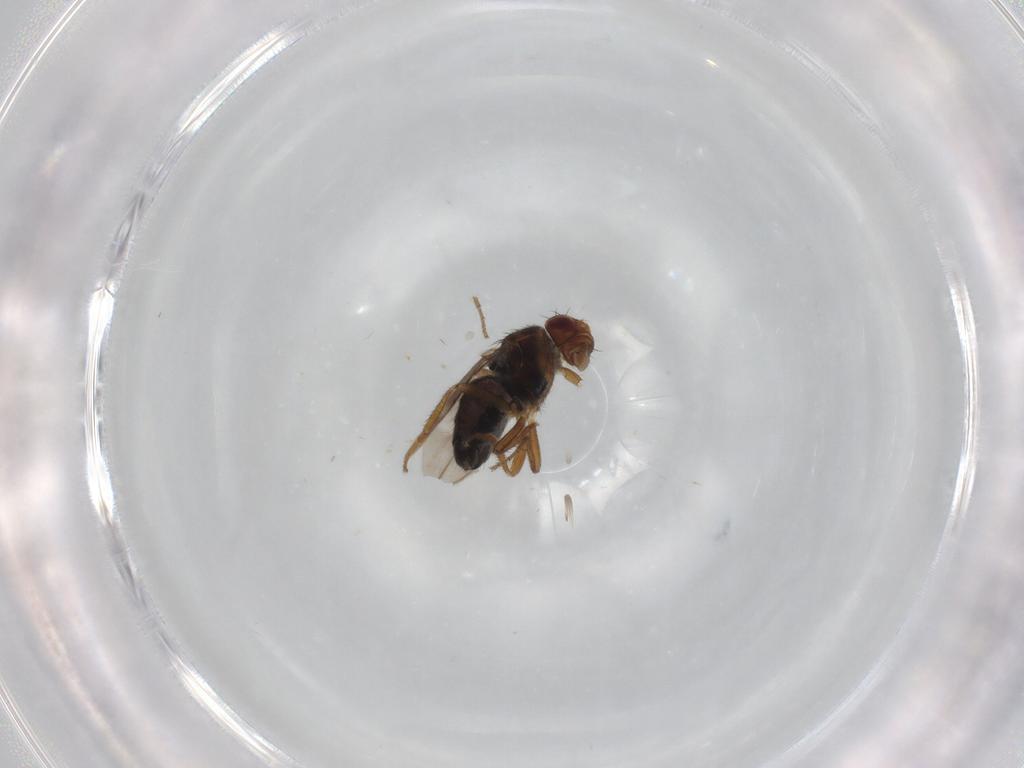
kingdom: Animalia
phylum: Arthropoda
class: Insecta
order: Diptera
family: Sphaeroceridae
